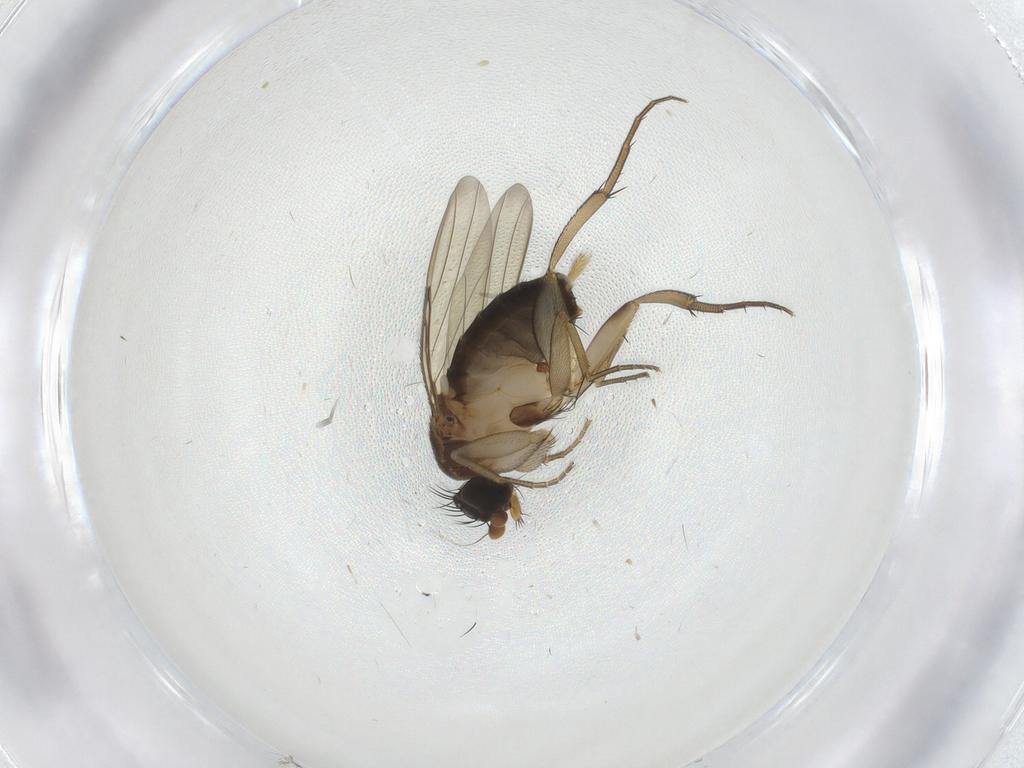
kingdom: Animalia
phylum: Arthropoda
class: Insecta
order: Diptera
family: Phoridae
